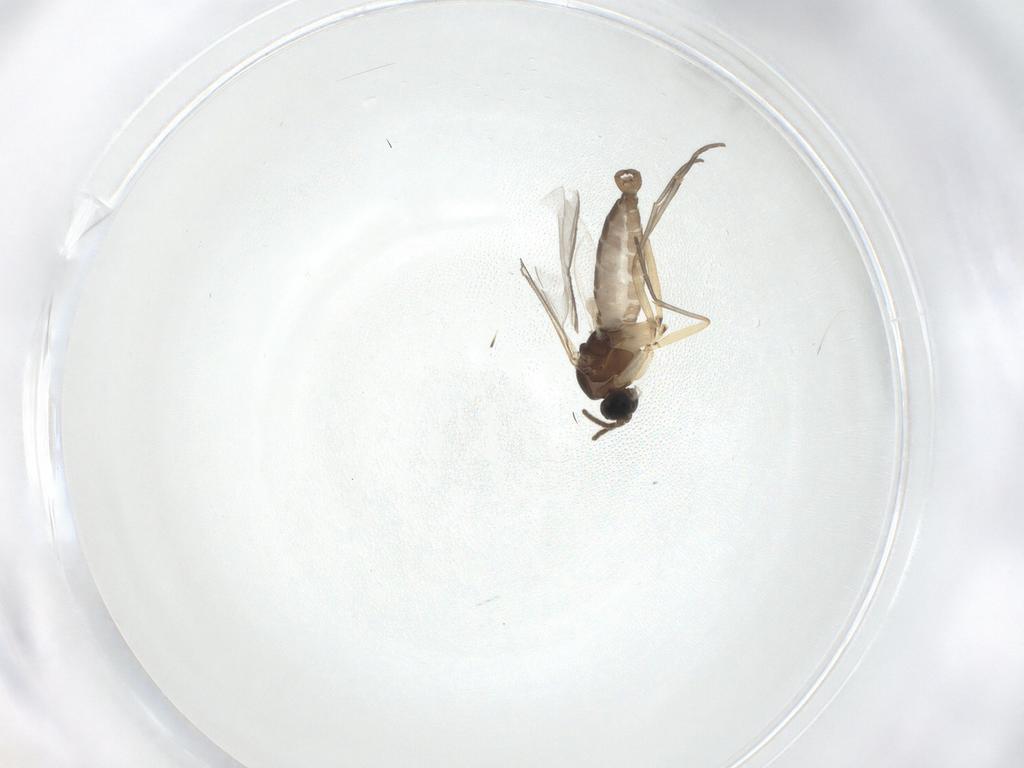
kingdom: Animalia
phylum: Arthropoda
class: Insecta
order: Diptera
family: Sciaridae
